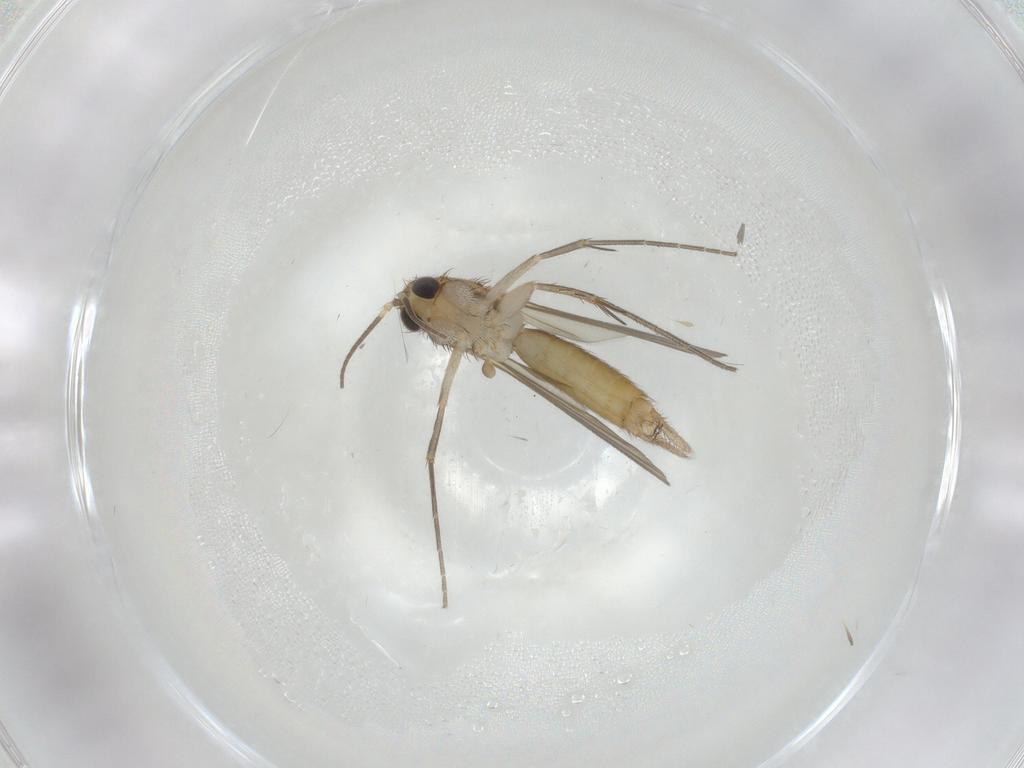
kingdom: Animalia
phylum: Arthropoda
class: Insecta
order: Diptera
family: Mycetophilidae
